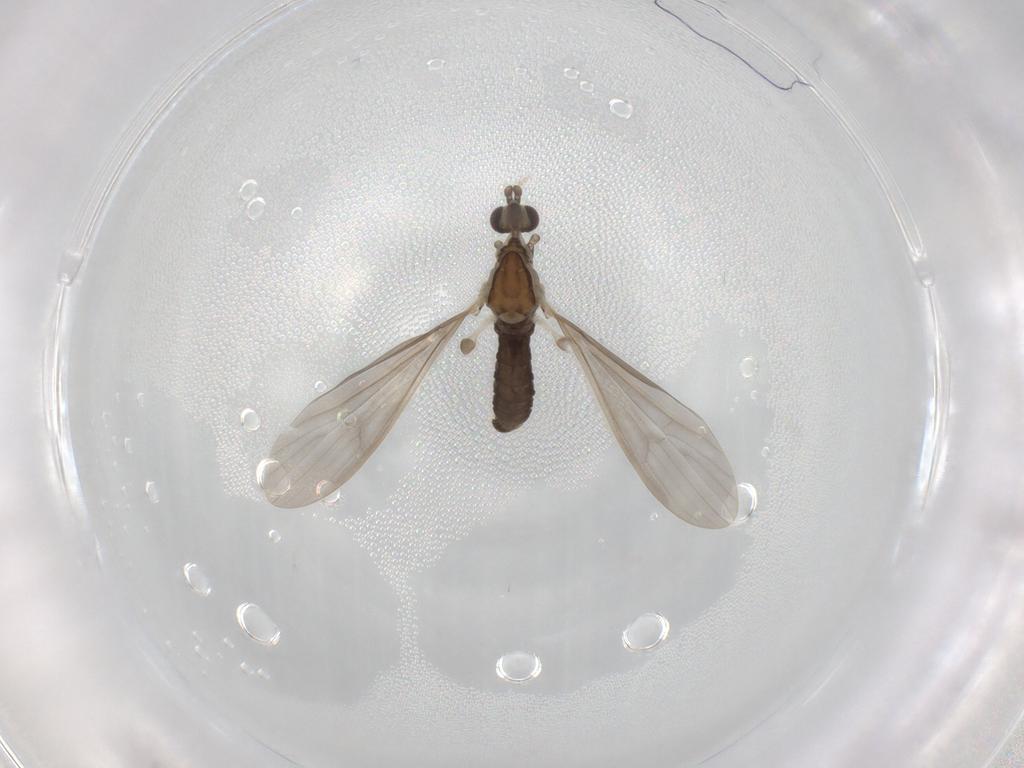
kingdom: Animalia
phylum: Arthropoda
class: Insecta
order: Diptera
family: Limoniidae
